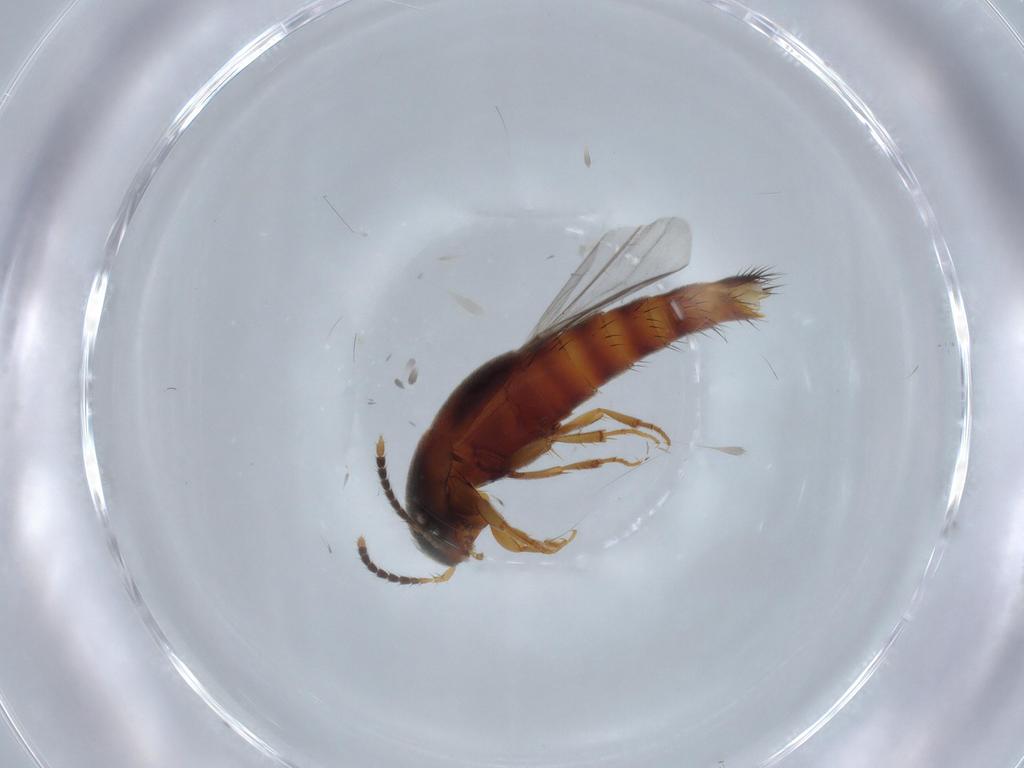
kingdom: Animalia
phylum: Arthropoda
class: Insecta
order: Coleoptera
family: Staphylinidae
